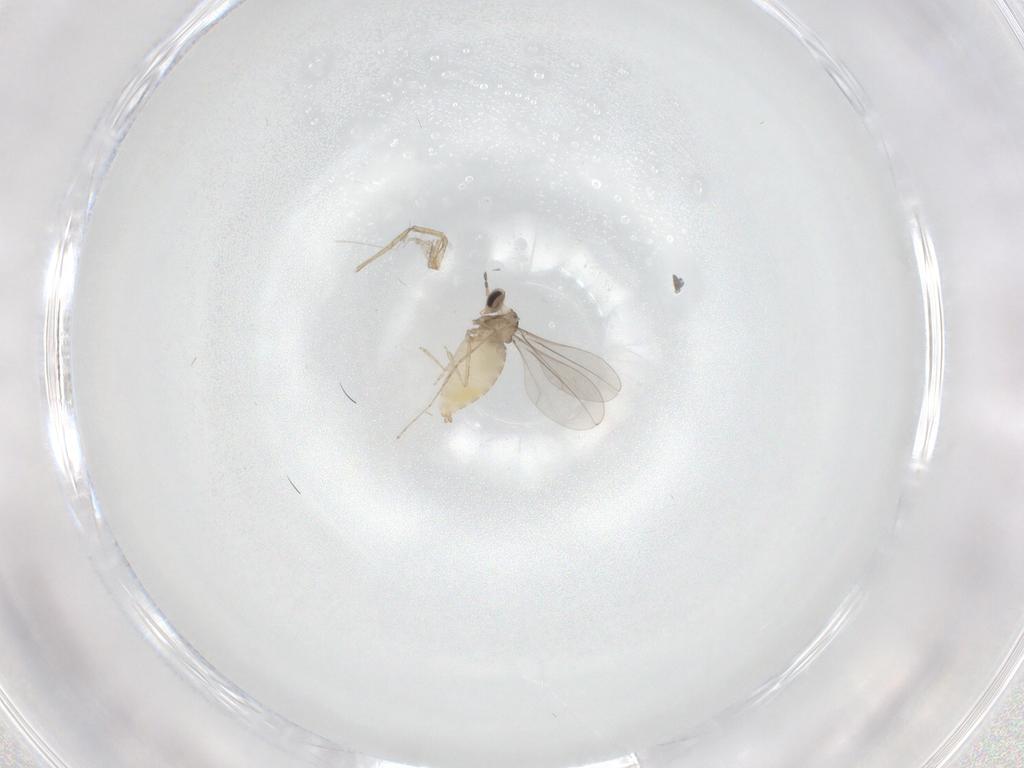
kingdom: Animalia
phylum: Arthropoda
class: Insecta
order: Diptera
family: Cecidomyiidae
